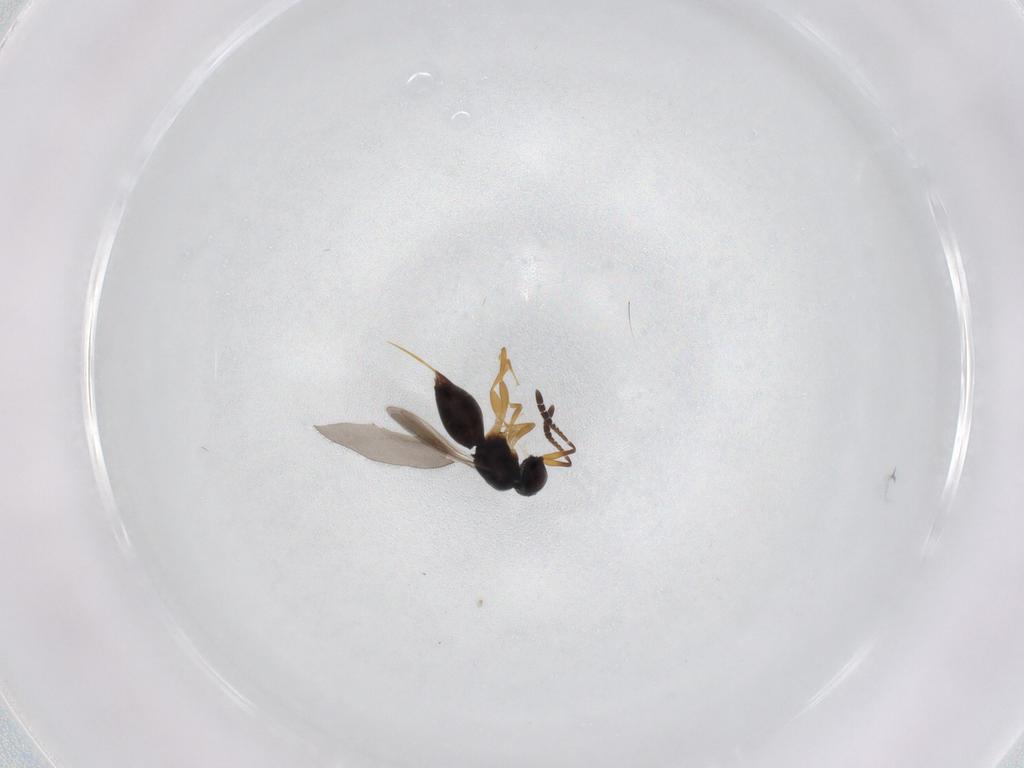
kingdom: Animalia
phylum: Arthropoda
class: Insecta
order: Hymenoptera
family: Ceraphronidae
